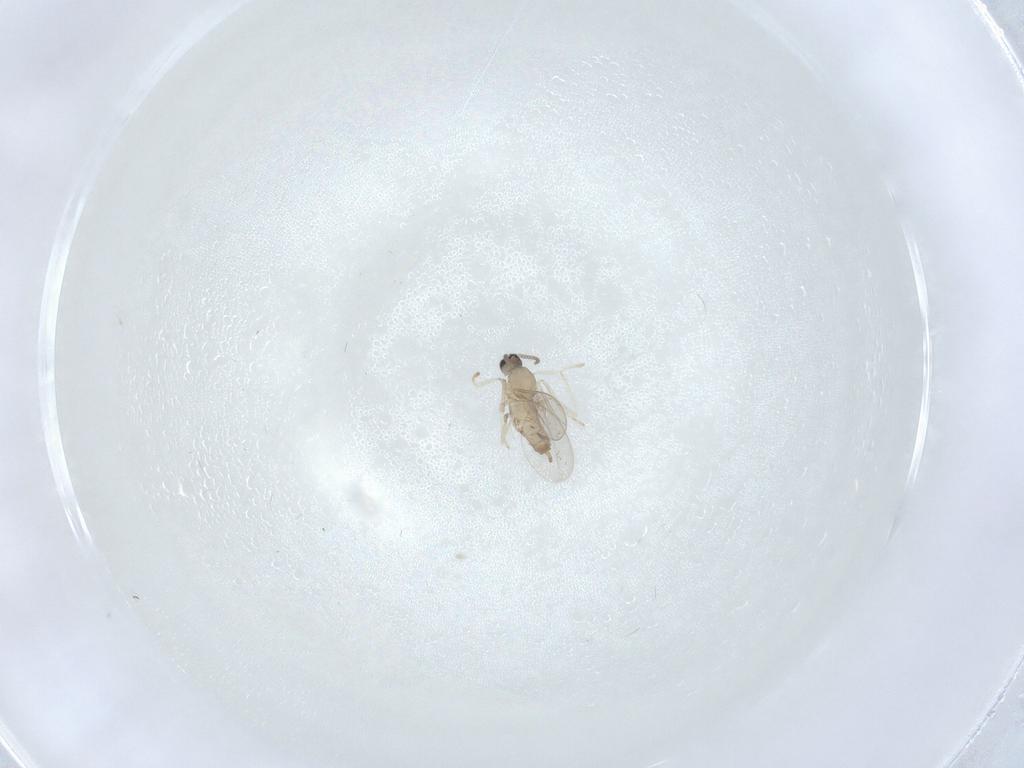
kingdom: Animalia
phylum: Arthropoda
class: Insecta
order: Diptera
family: Cecidomyiidae
